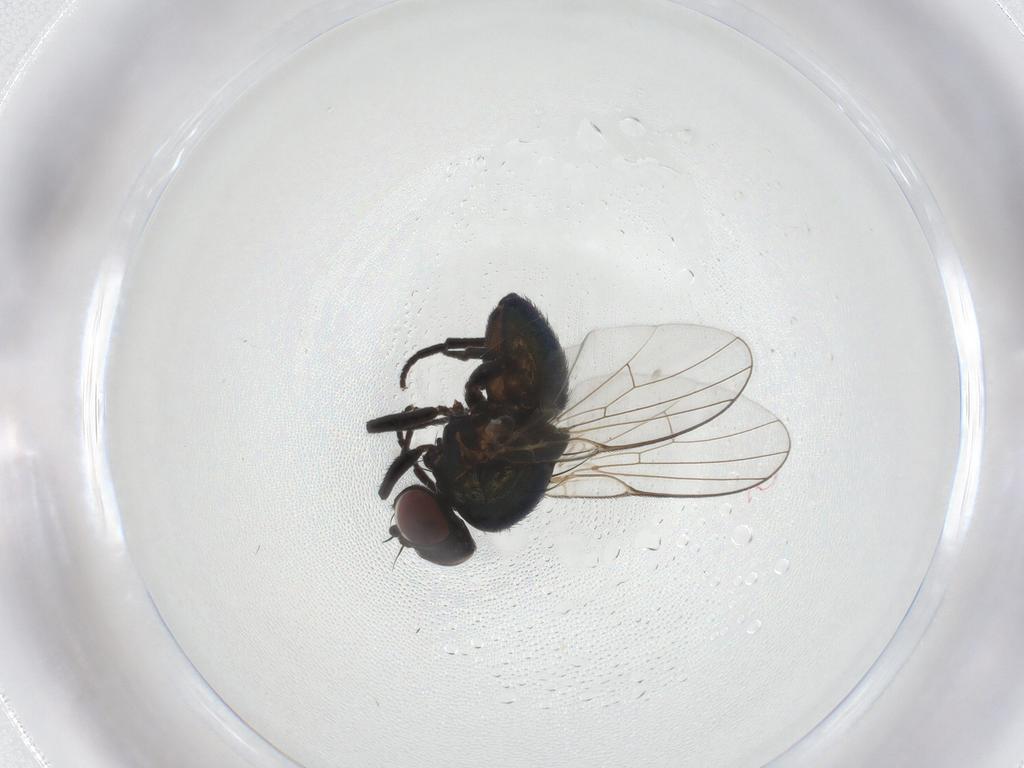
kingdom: Animalia
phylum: Arthropoda
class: Insecta
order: Diptera
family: Agromyzidae
